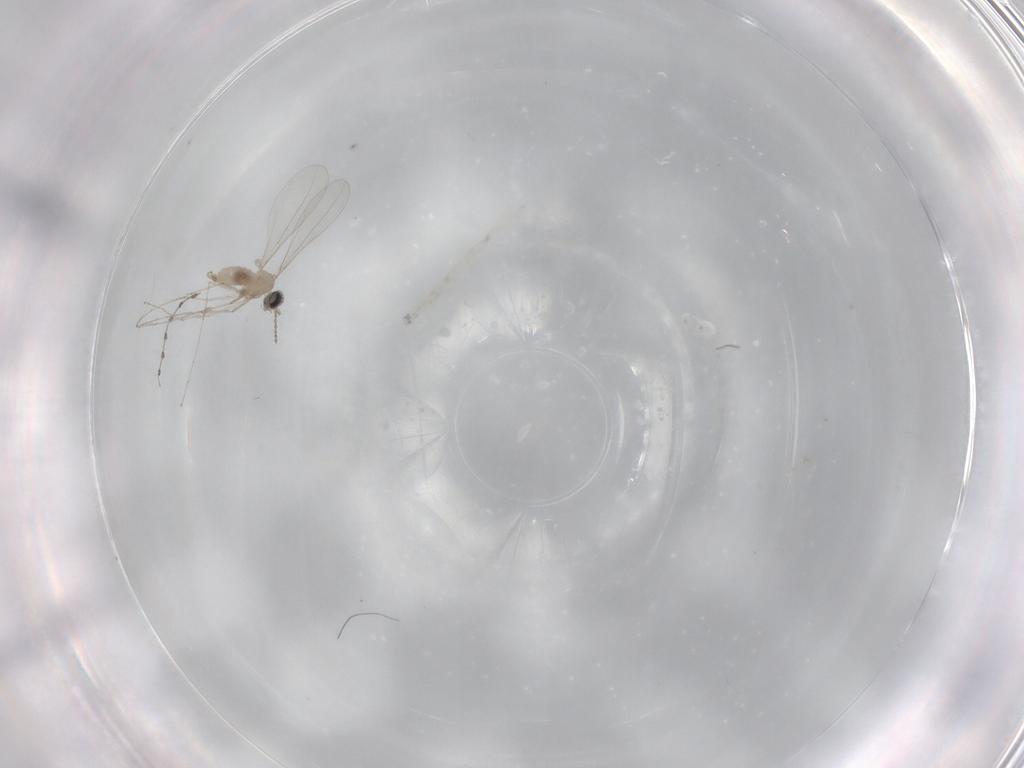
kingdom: Animalia
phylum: Arthropoda
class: Insecta
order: Diptera
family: Cecidomyiidae
